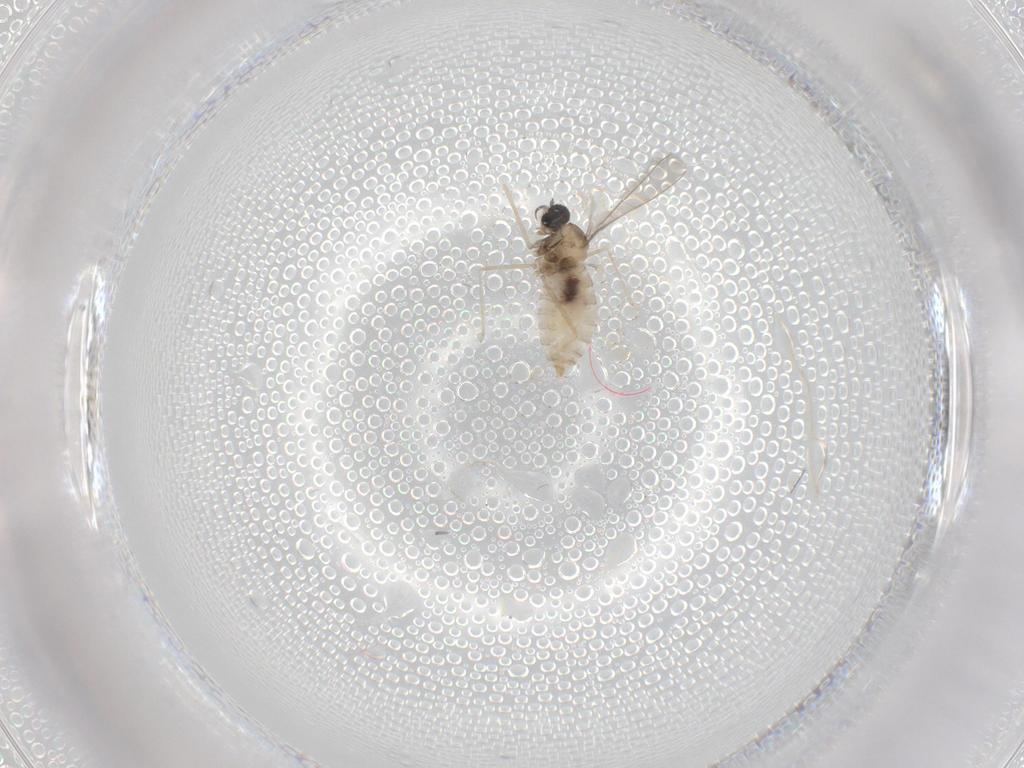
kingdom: Animalia
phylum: Arthropoda
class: Insecta
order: Diptera
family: Chironomidae
